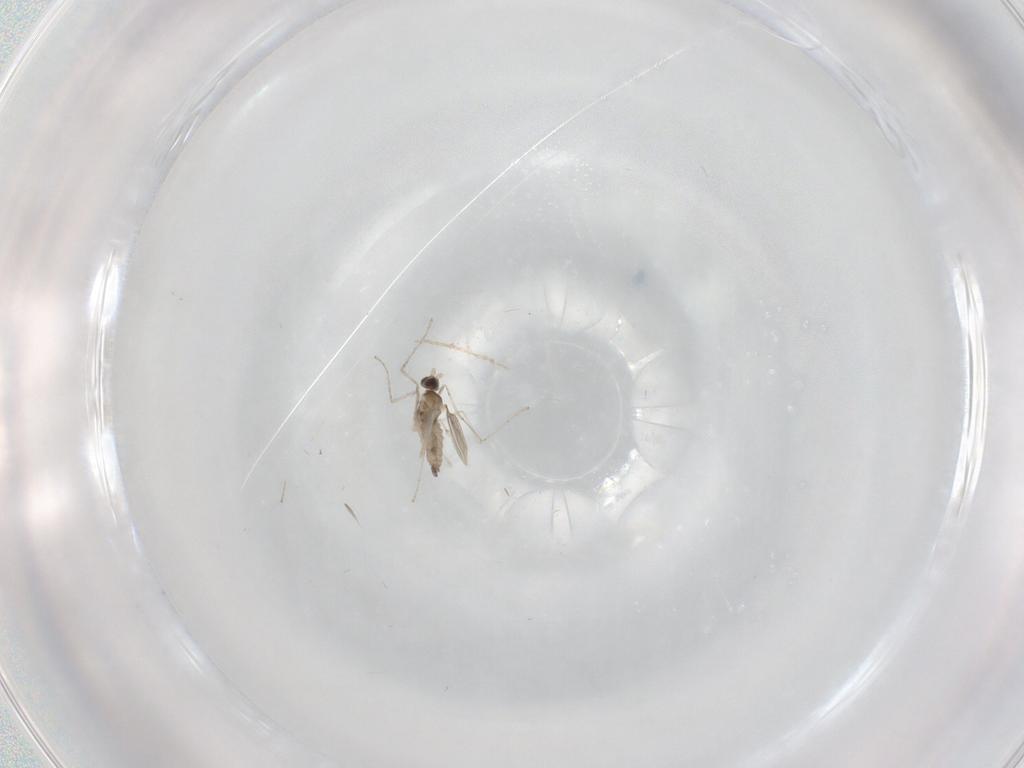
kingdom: Animalia
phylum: Arthropoda
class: Insecta
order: Diptera
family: Cecidomyiidae
